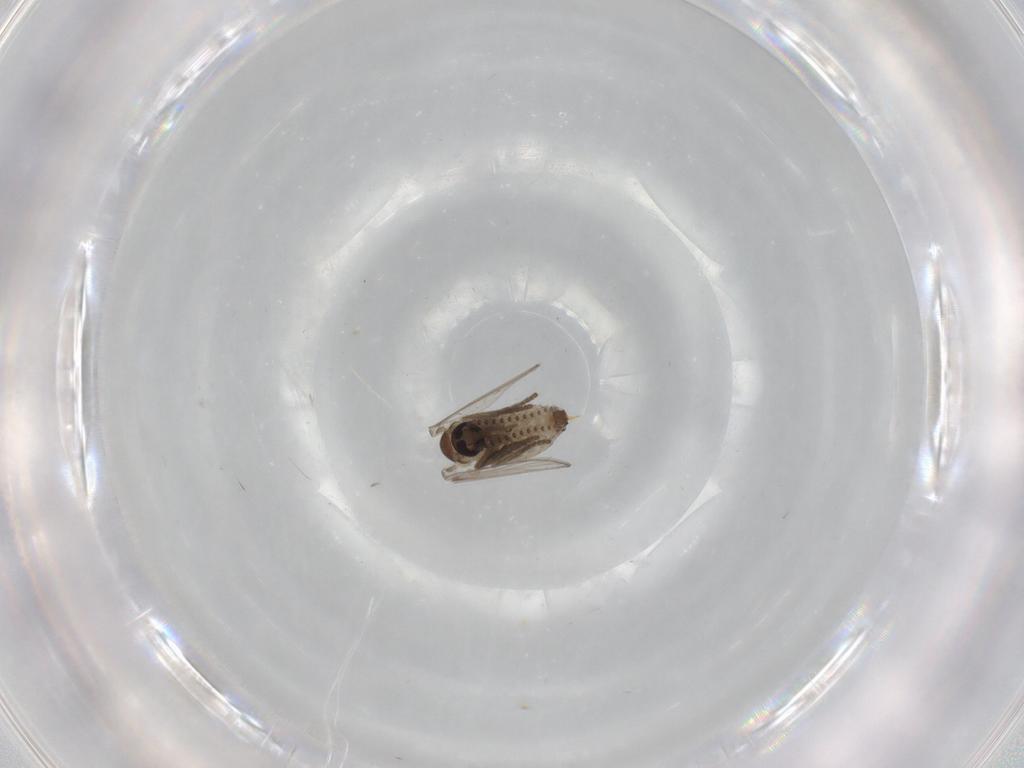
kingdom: Animalia
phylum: Arthropoda
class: Insecta
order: Diptera
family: Psychodidae
